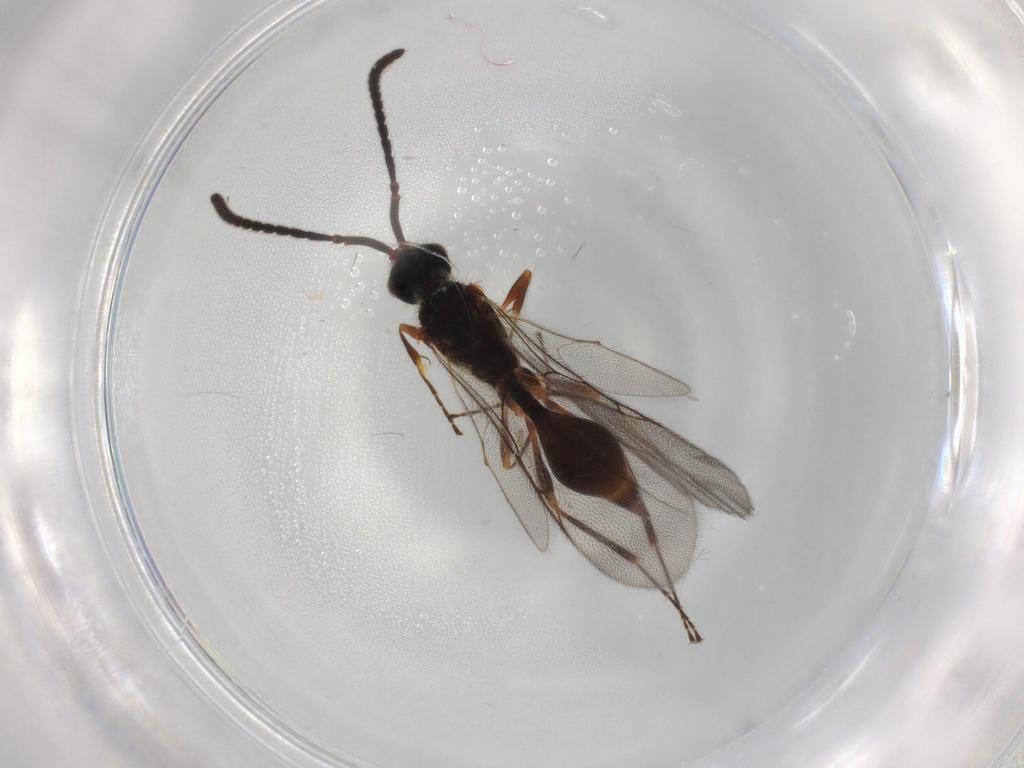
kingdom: Animalia
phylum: Arthropoda
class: Insecta
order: Hymenoptera
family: Diapriidae
